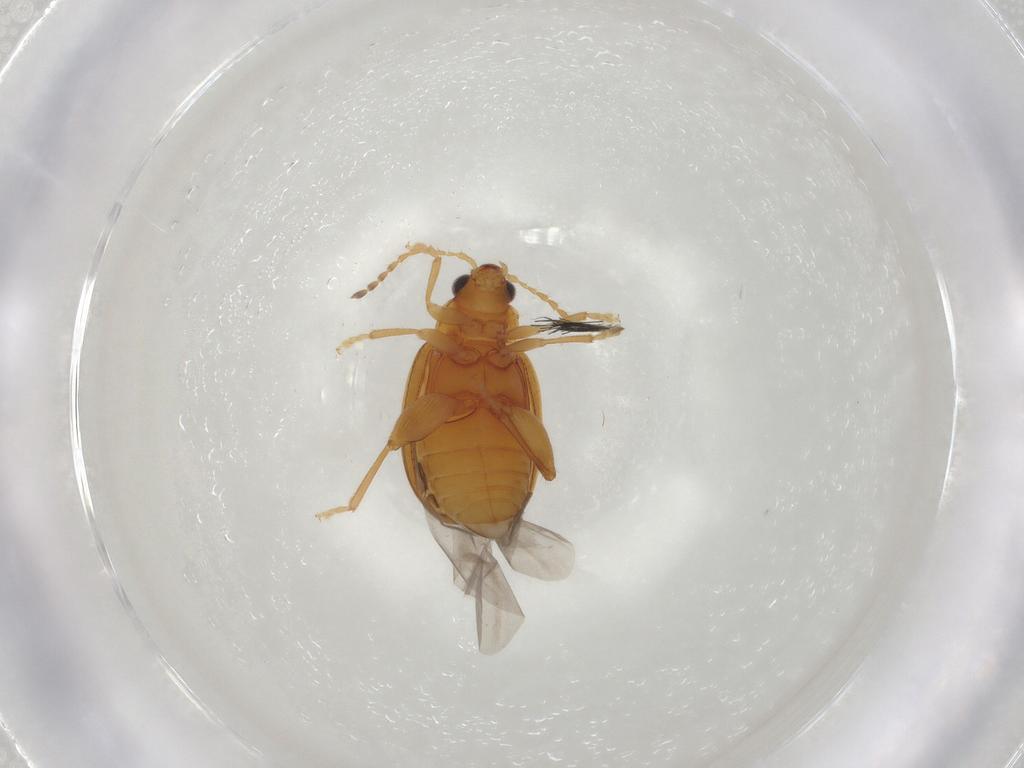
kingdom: Animalia
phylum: Arthropoda
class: Insecta
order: Coleoptera
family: Chrysomelidae
